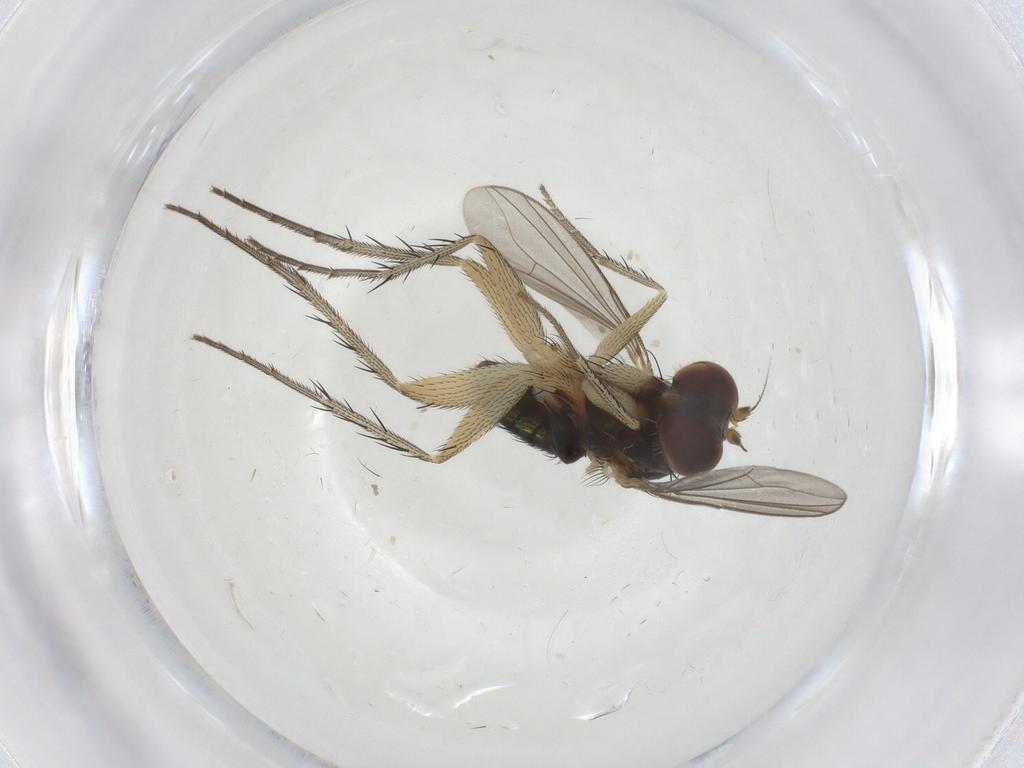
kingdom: Animalia
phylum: Arthropoda
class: Insecta
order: Diptera
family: Dolichopodidae
